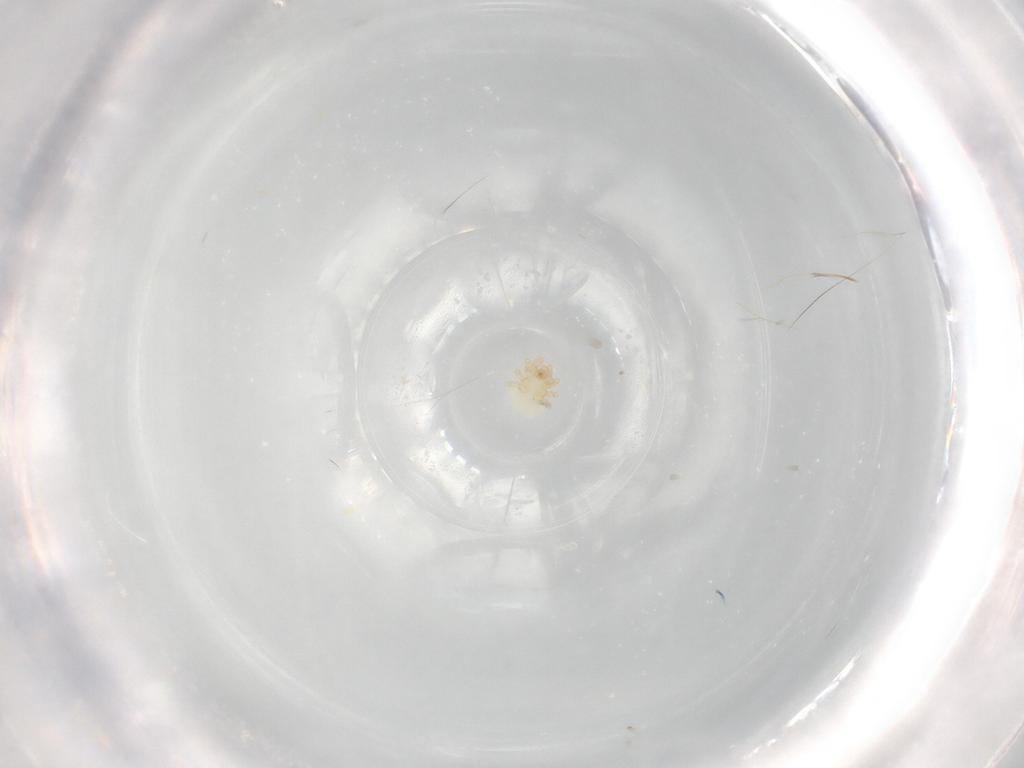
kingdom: Animalia
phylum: Arthropoda
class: Arachnida
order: Mesostigmata
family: Melicharidae
